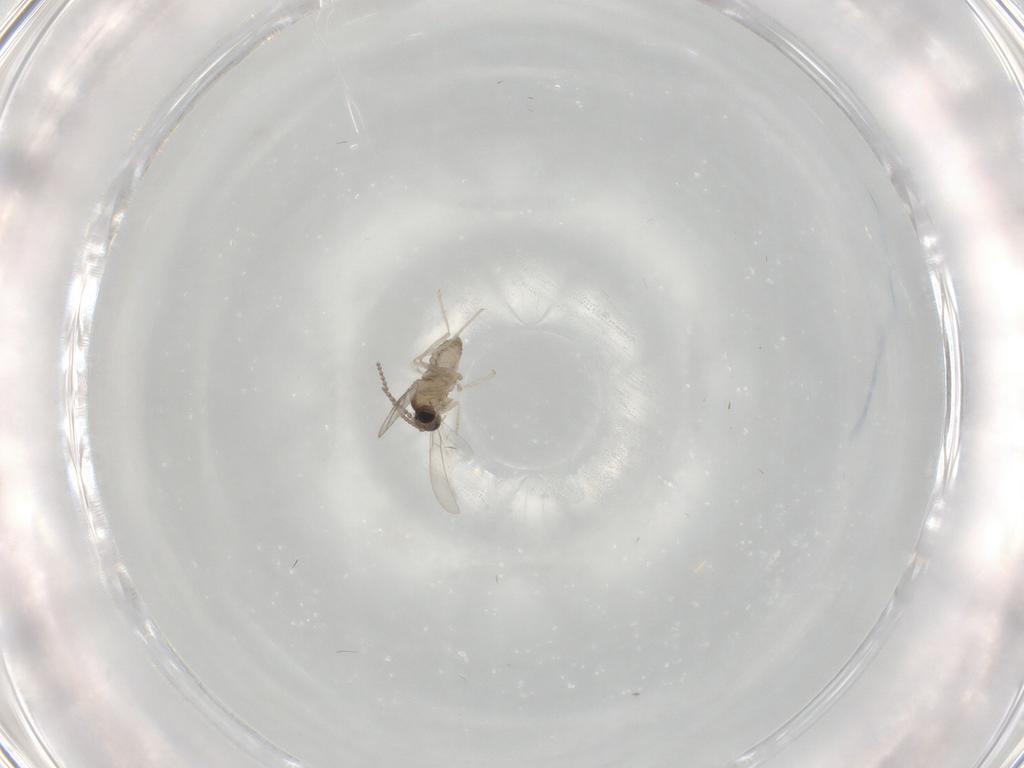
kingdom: Animalia
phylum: Arthropoda
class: Insecta
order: Diptera
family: Cecidomyiidae
